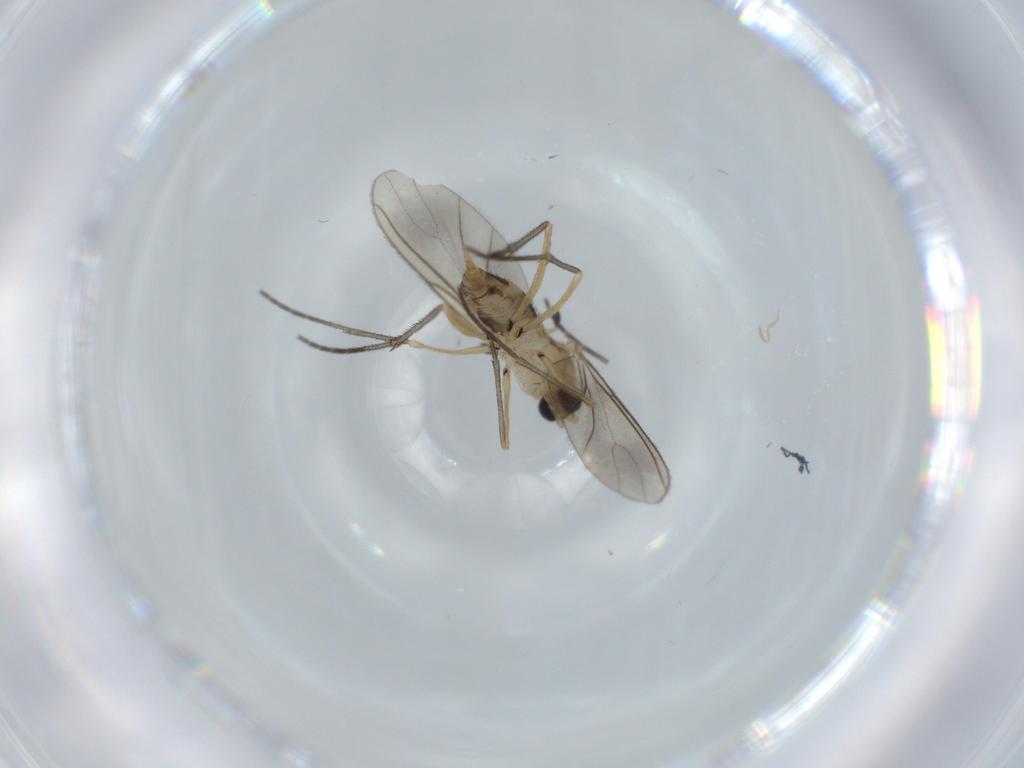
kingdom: Animalia
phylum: Arthropoda
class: Insecta
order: Diptera
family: Sciaridae
